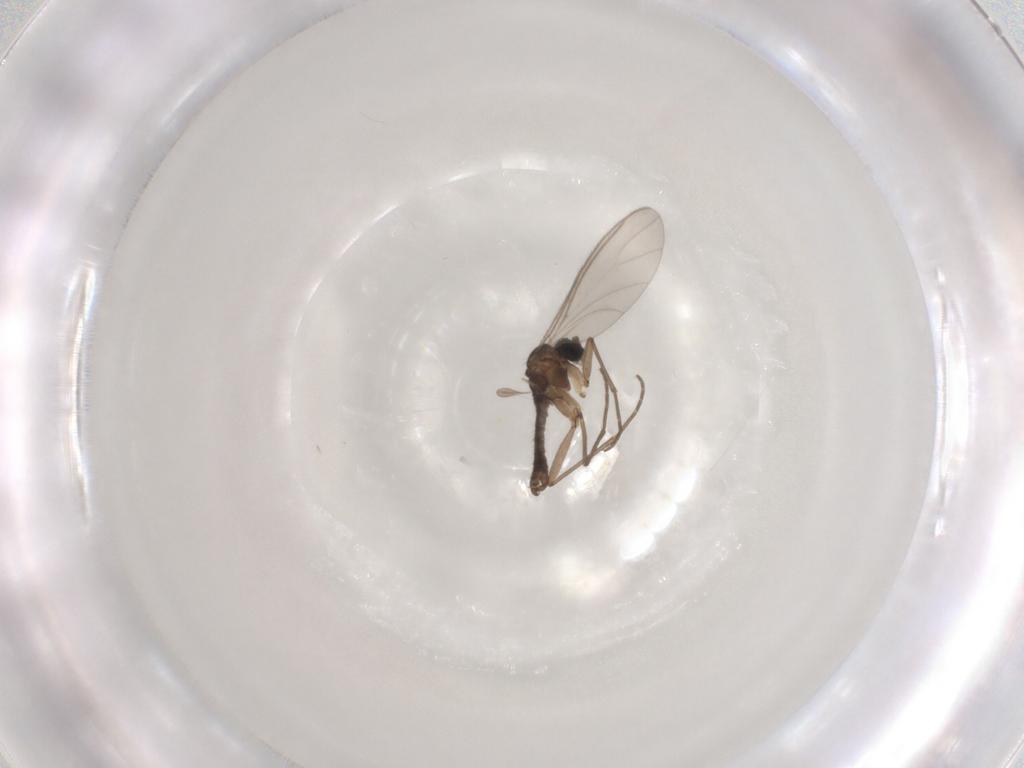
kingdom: Animalia
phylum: Arthropoda
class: Insecta
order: Diptera
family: Sciaridae
